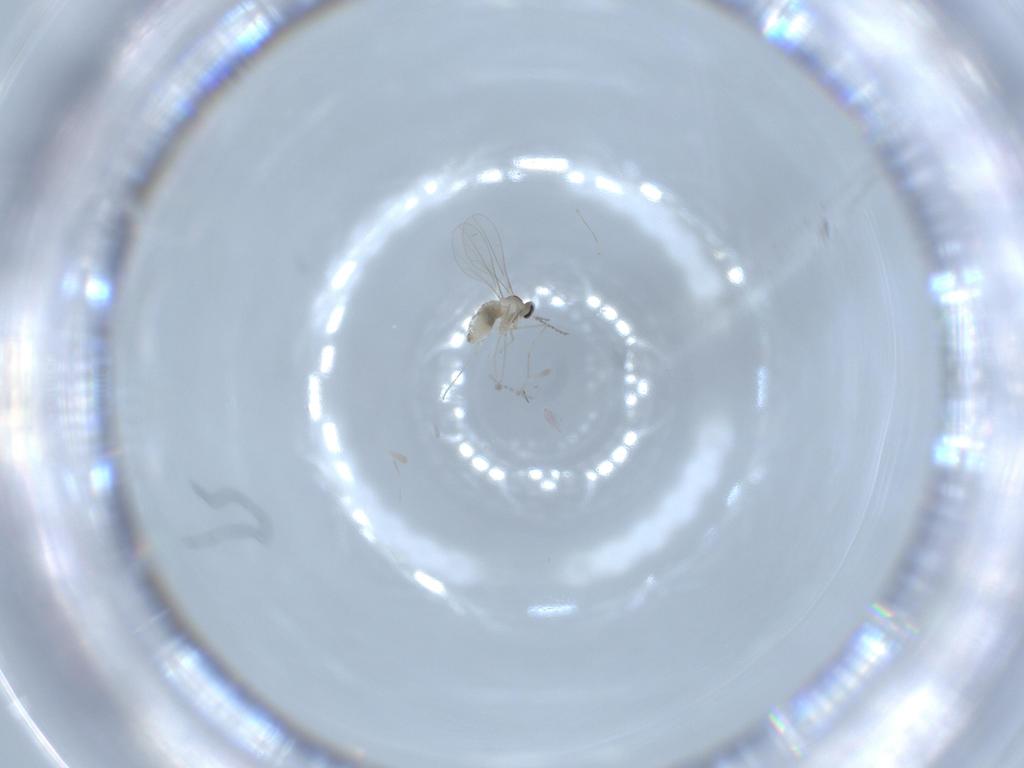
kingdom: Animalia
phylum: Arthropoda
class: Insecta
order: Diptera
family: Cecidomyiidae
